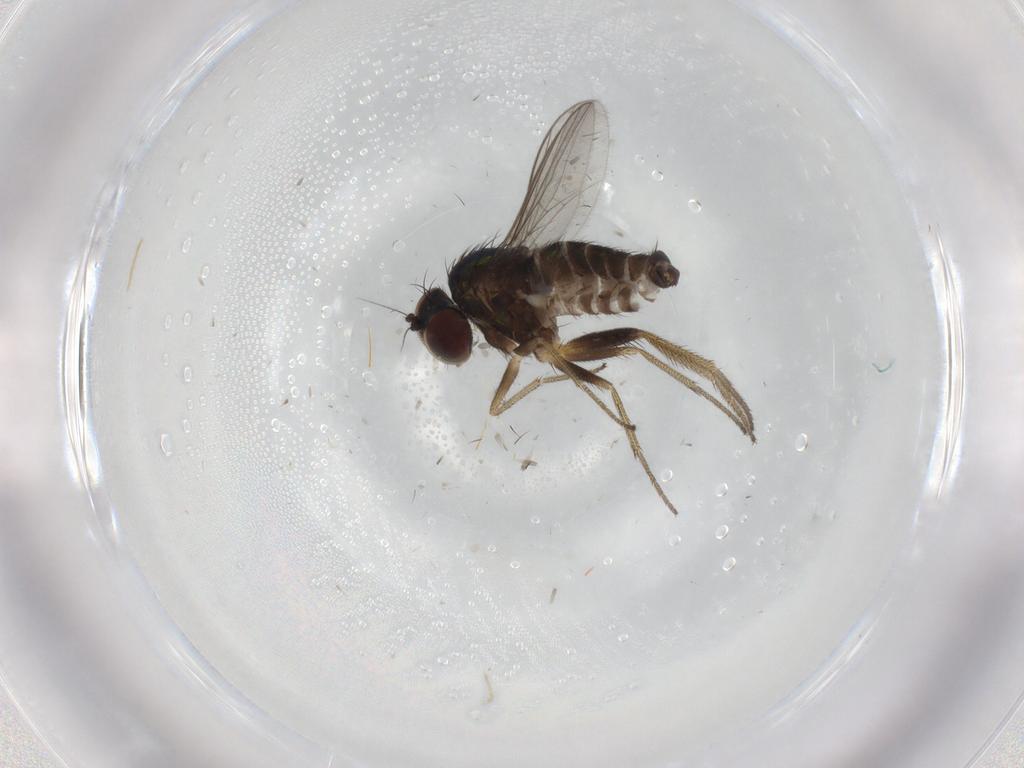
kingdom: Animalia
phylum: Arthropoda
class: Insecta
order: Diptera
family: Dolichopodidae
